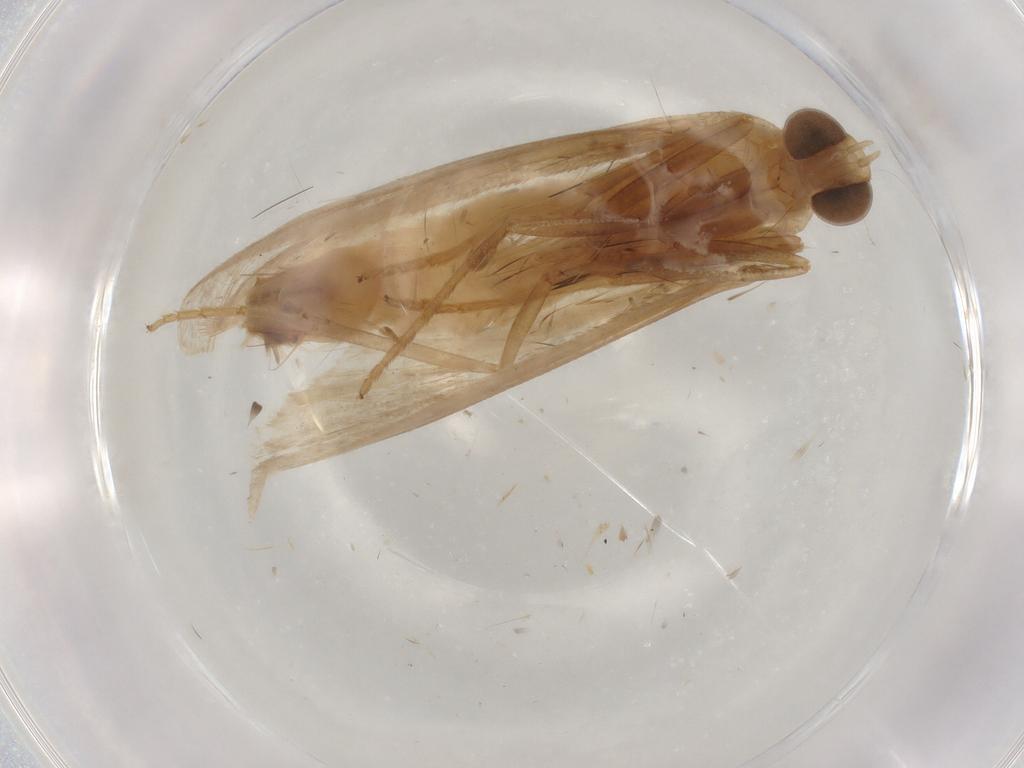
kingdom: Animalia
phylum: Arthropoda
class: Insecta
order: Lepidoptera
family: Pyralidae
